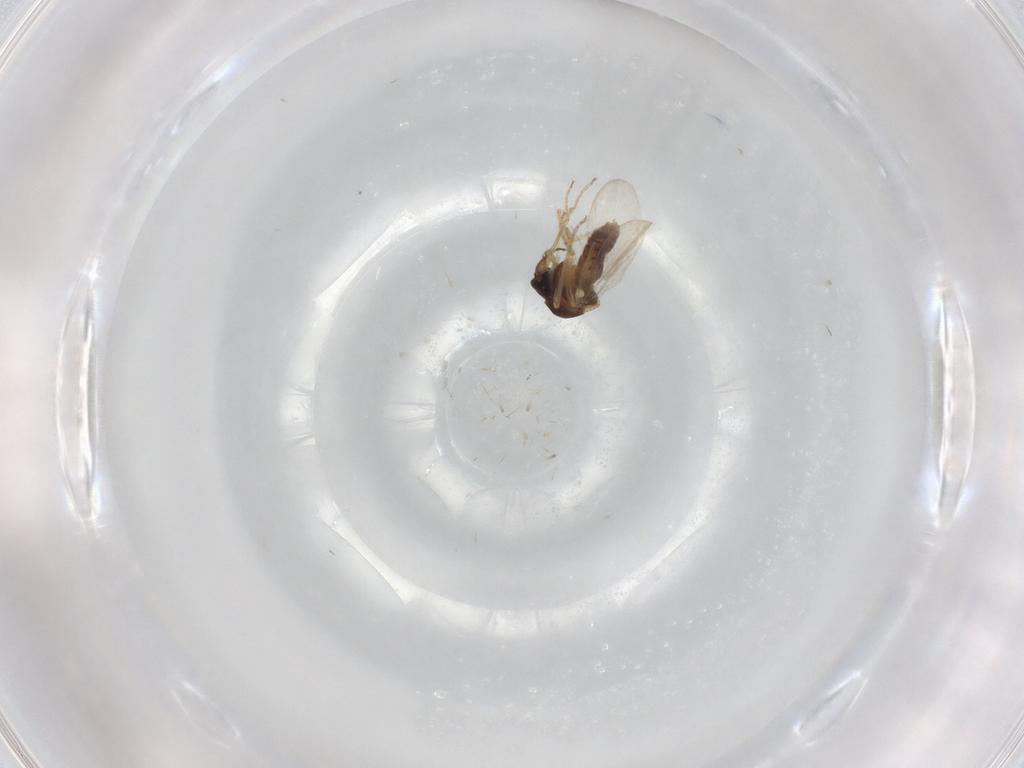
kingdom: Animalia
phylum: Arthropoda
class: Insecta
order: Diptera
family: Ceratopogonidae
